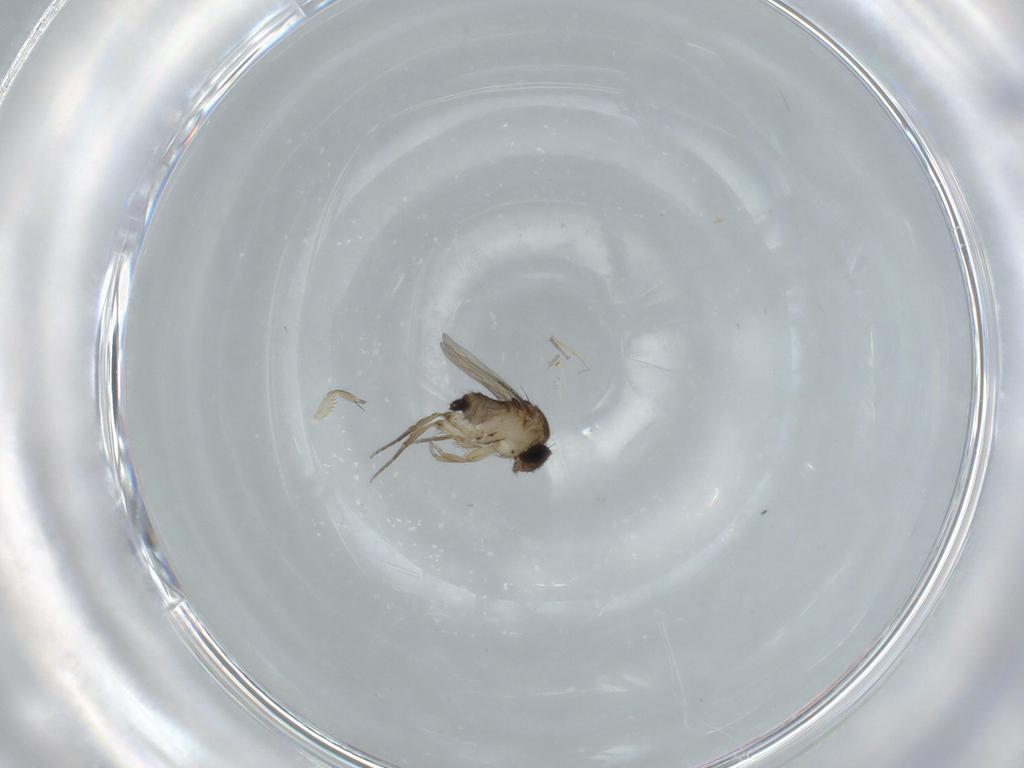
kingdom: Animalia
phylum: Arthropoda
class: Insecta
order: Diptera
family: Phoridae
